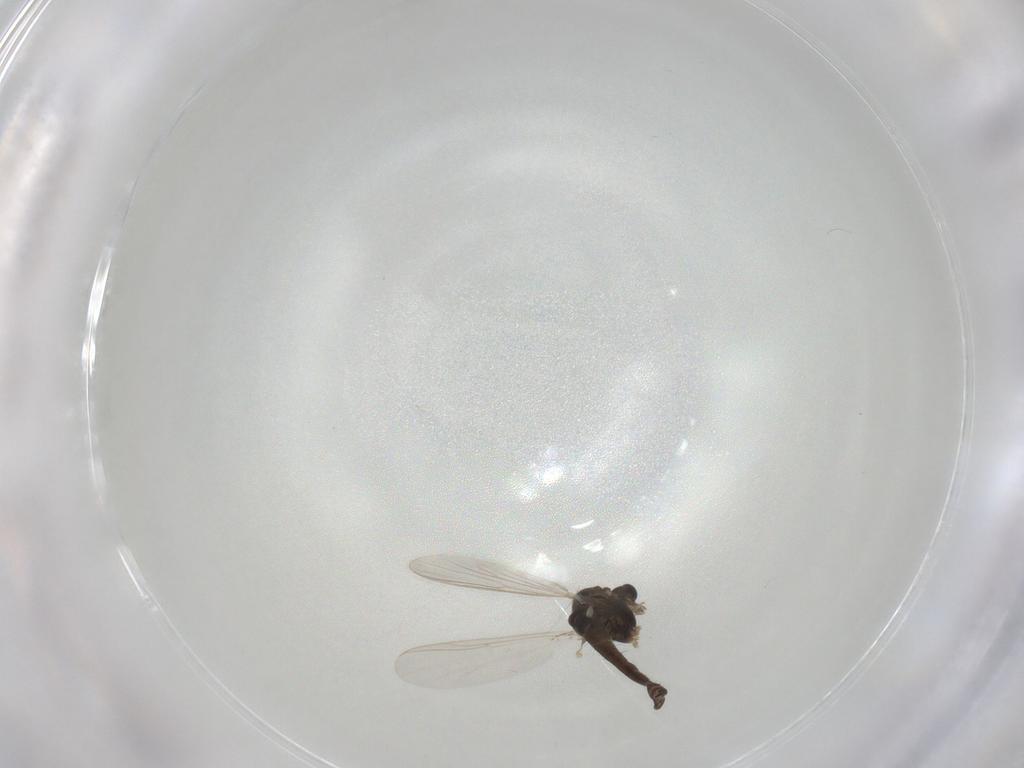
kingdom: Animalia
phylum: Arthropoda
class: Insecta
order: Diptera
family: Chironomidae
